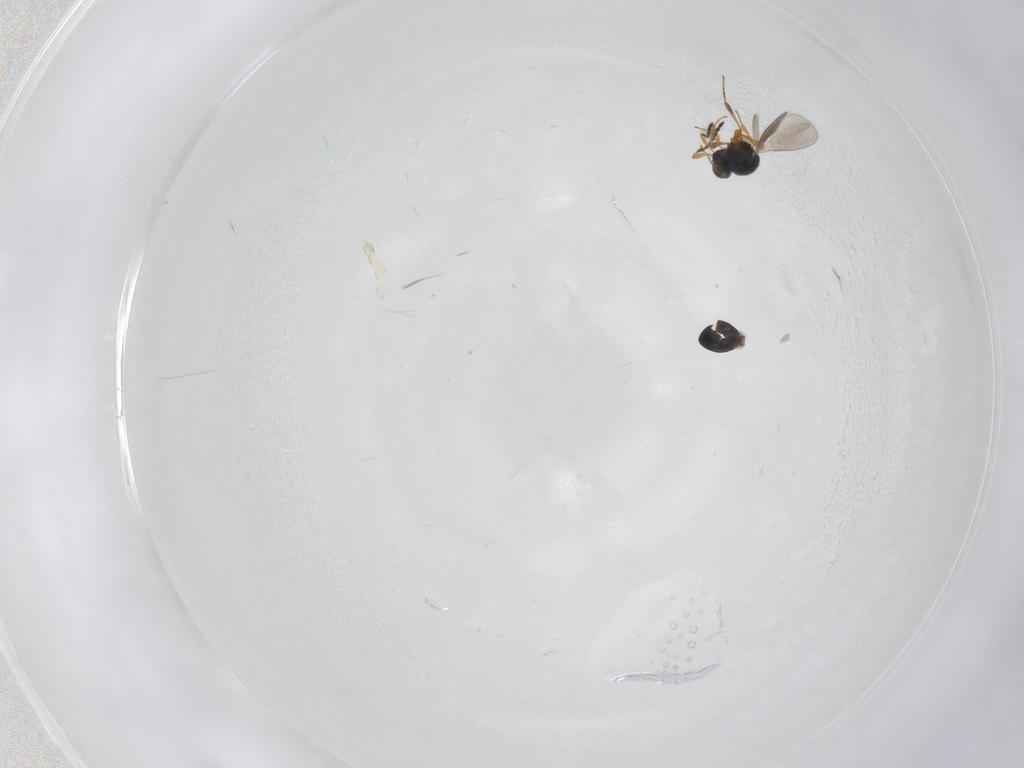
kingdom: Animalia
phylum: Arthropoda
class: Insecta
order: Hymenoptera
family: Platygastridae
